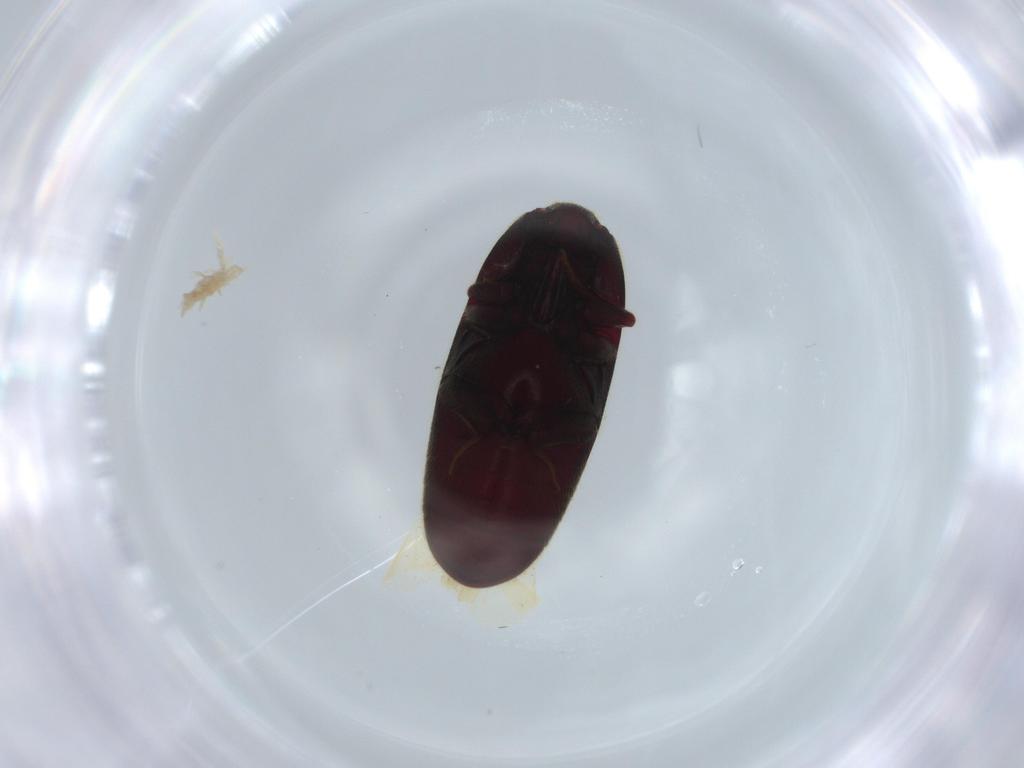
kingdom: Animalia
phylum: Arthropoda
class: Insecta
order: Coleoptera
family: Throscidae
